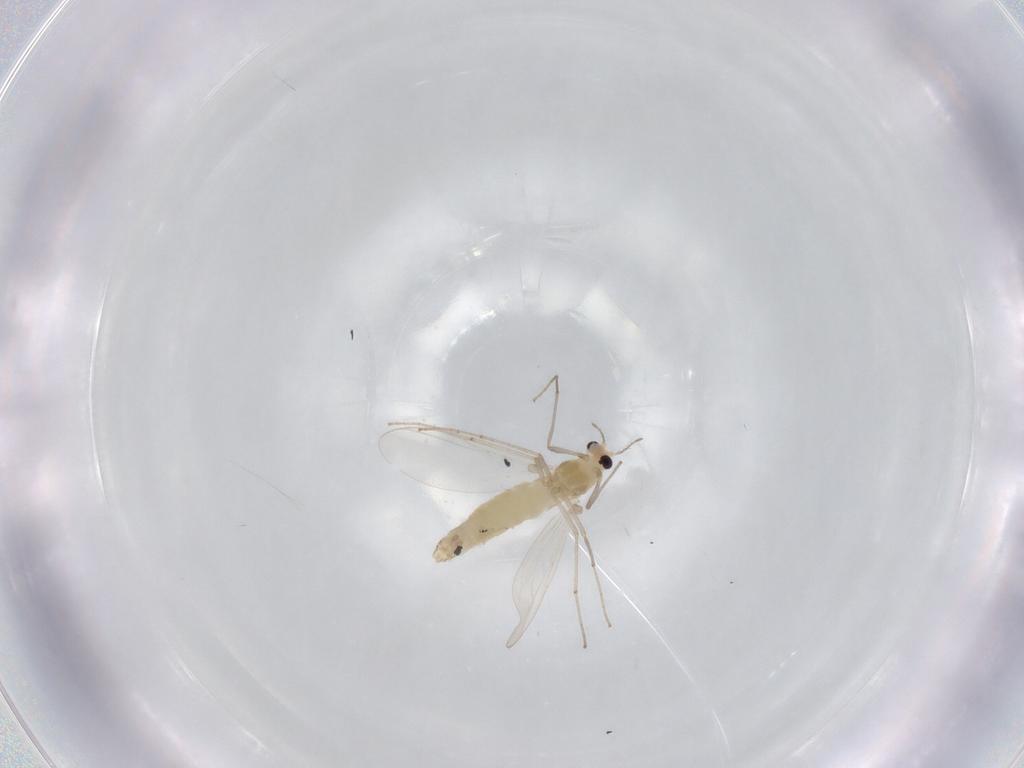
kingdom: Animalia
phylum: Arthropoda
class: Insecta
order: Diptera
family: Chironomidae
